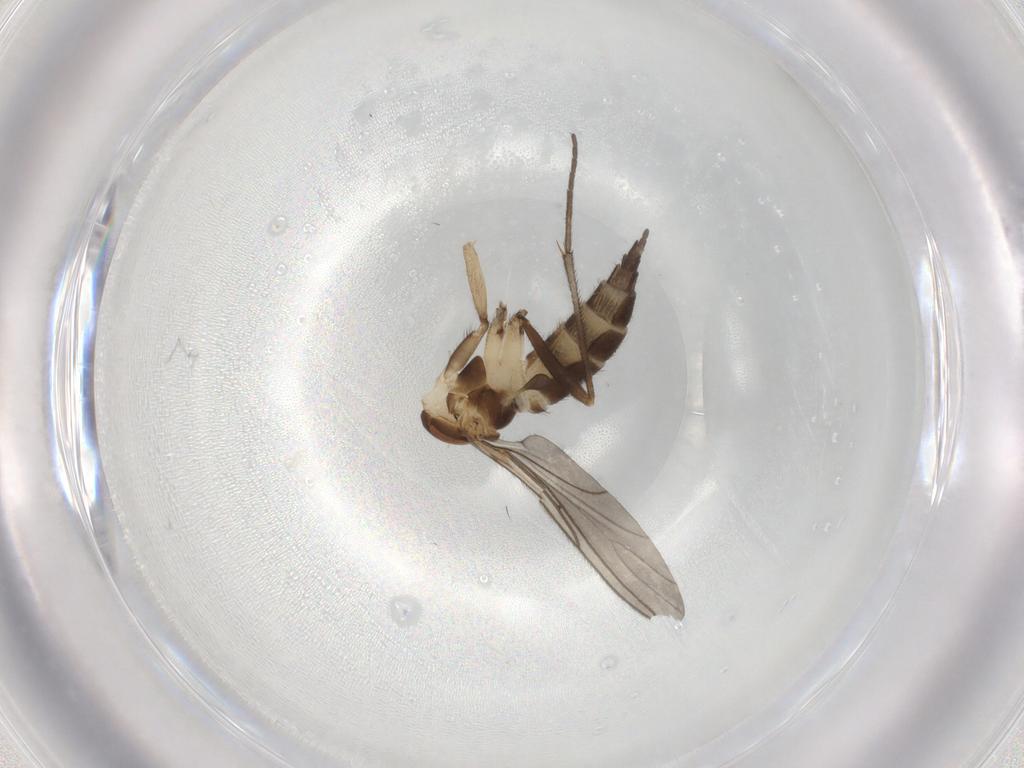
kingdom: Animalia
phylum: Arthropoda
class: Insecta
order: Diptera
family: Sciaridae
